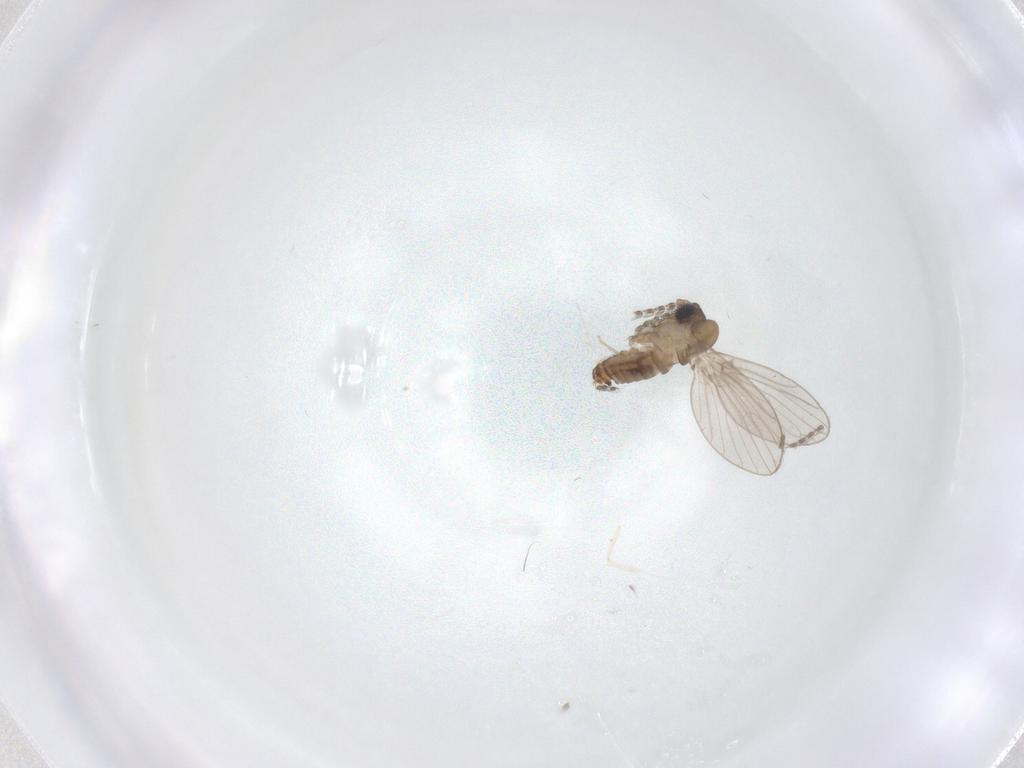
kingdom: Animalia
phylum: Arthropoda
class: Insecta
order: Diptera
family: Cecidomyiidae
